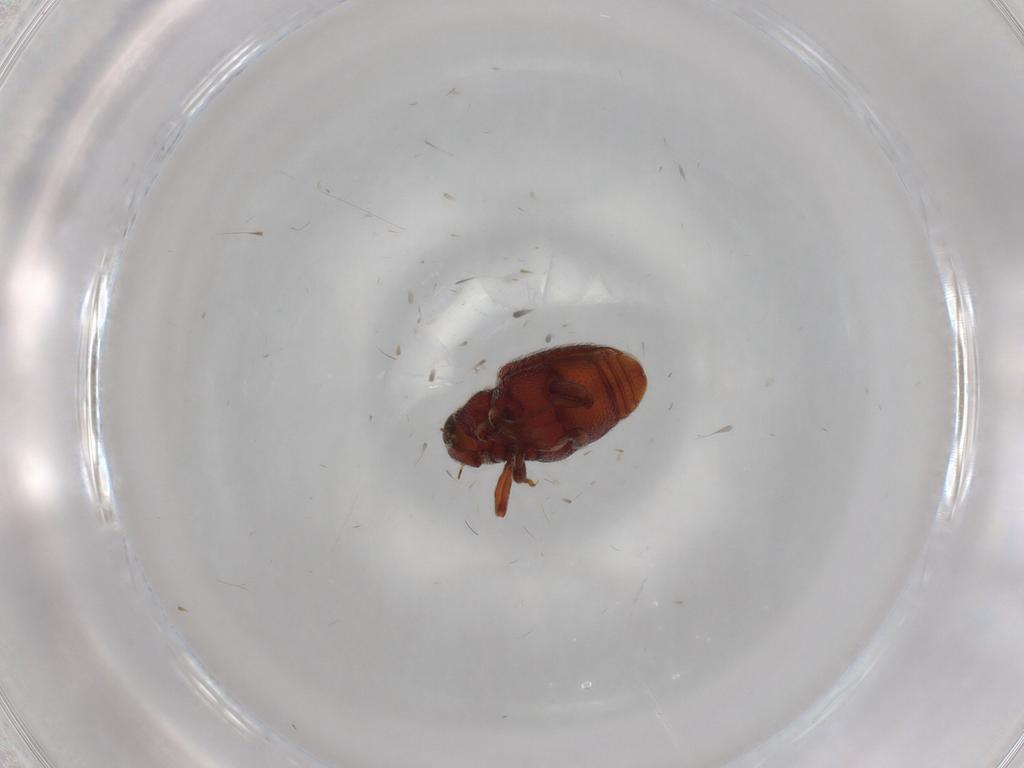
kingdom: Animalia
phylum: Arthropoda
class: Insecta
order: Coleoptera
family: Curculionidae
